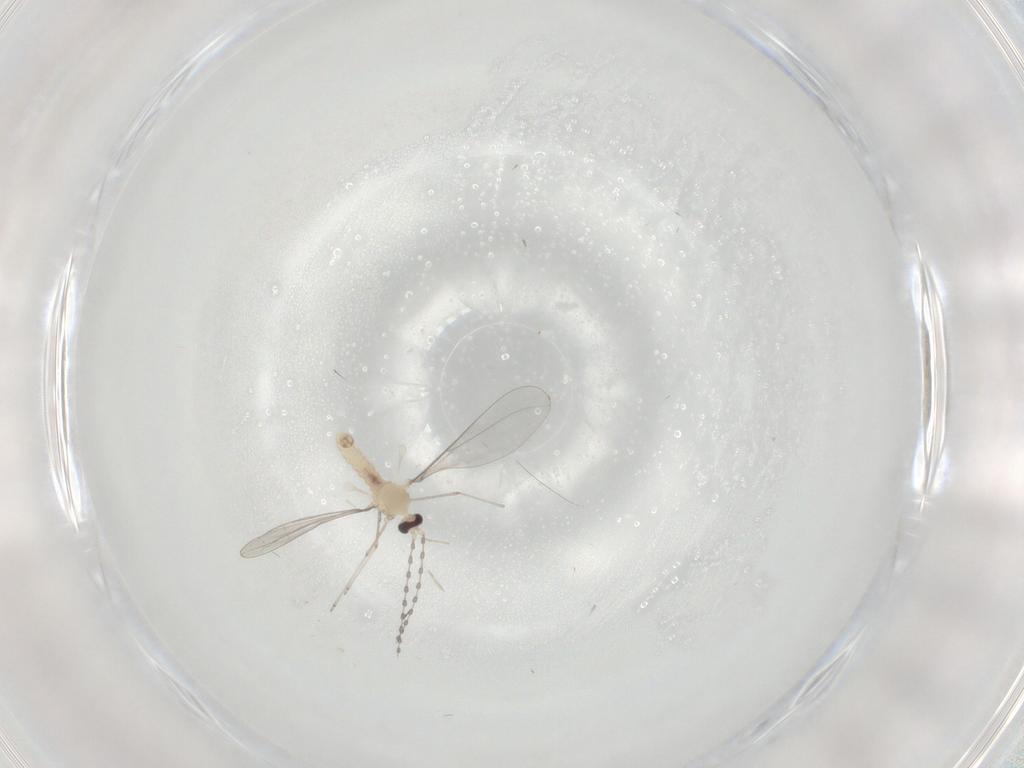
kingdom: Animalia
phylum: Arthropoda
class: Insecta
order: Diptera
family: Cecidomyiidae
